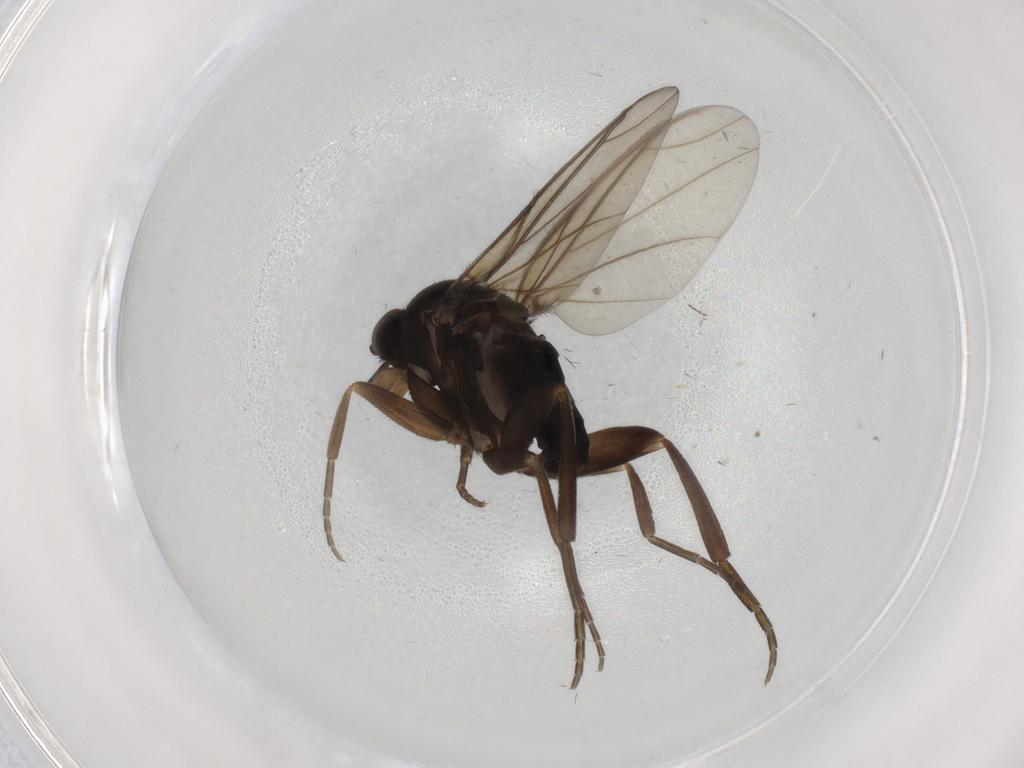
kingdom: Animalia
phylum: Arthropoda
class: Insecta
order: Diptera
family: Phoridae
